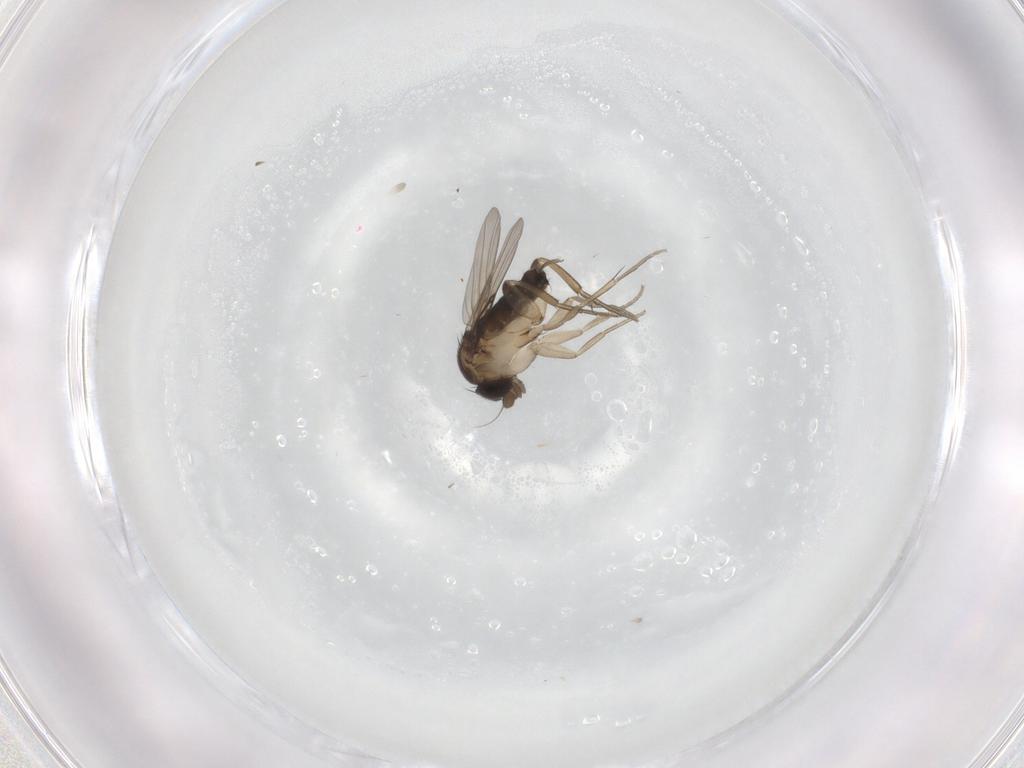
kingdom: Animalia
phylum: Arthropoda
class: Insecta
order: Diptera
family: Phoridae
